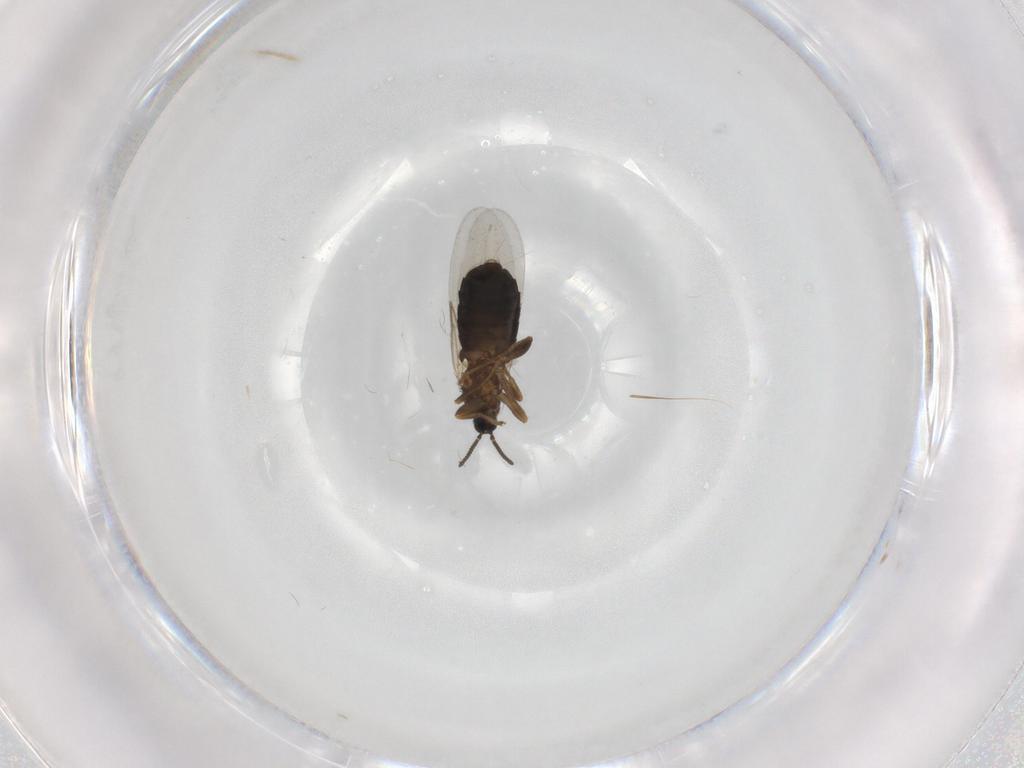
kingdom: Animalia
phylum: Arthropoda
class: Insecta
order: Diptera
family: Scatopsidae
